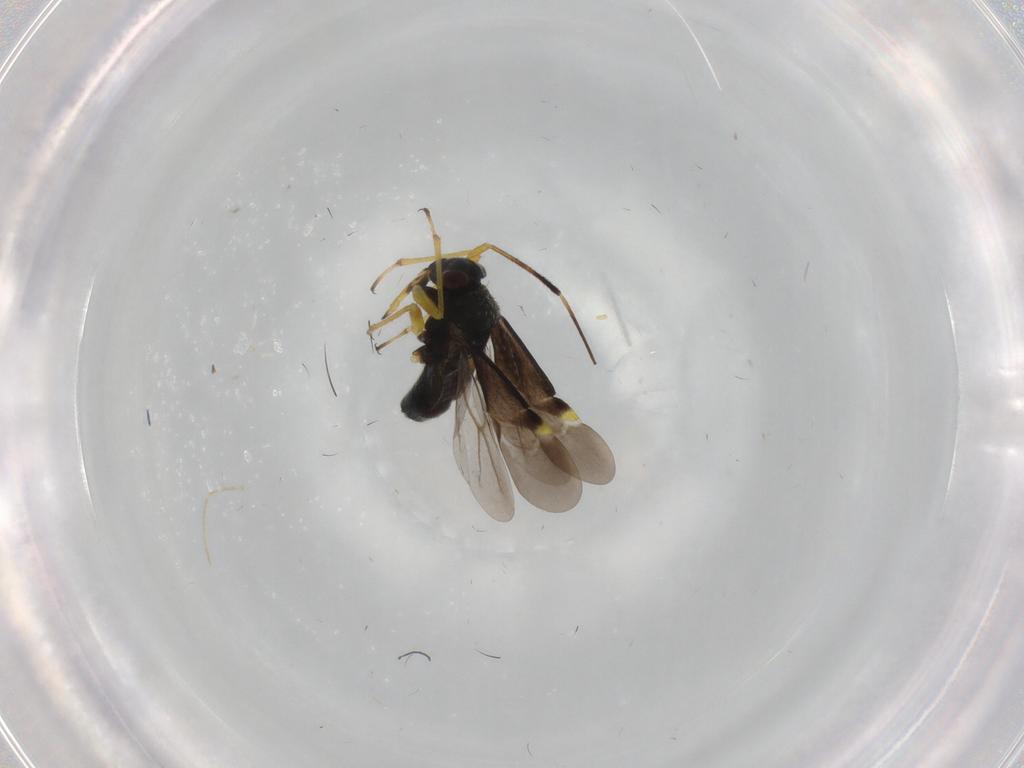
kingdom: Animalia
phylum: Arthropoda
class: Insecta
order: Hemiptera
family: Miridae
